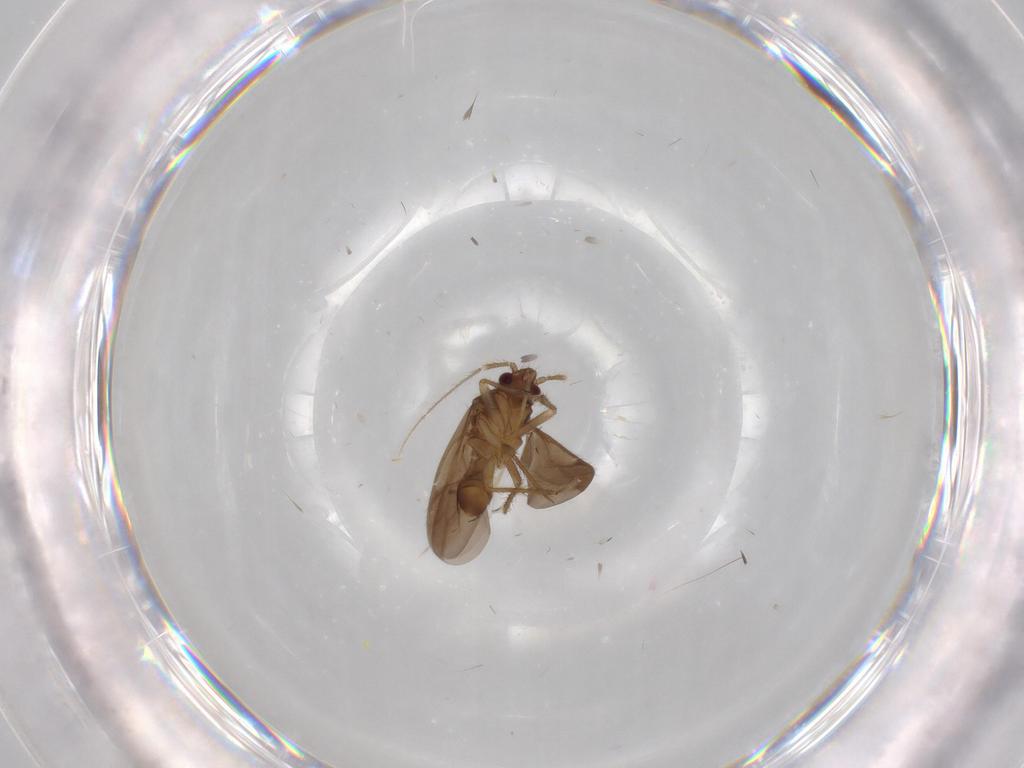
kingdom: Animalia
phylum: Arthropoda
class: Insecta
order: Hemiptera
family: Ceratocombidae
